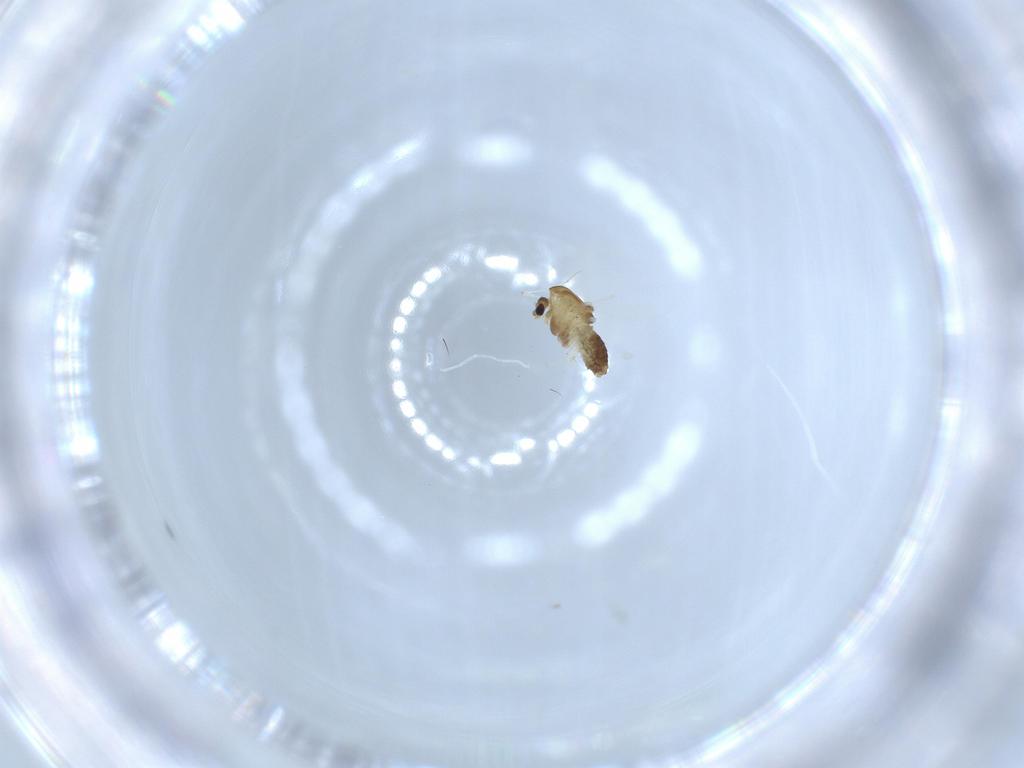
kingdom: Animalia
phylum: Arthropoda
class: Insecta
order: Diptera
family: Chironomidae
